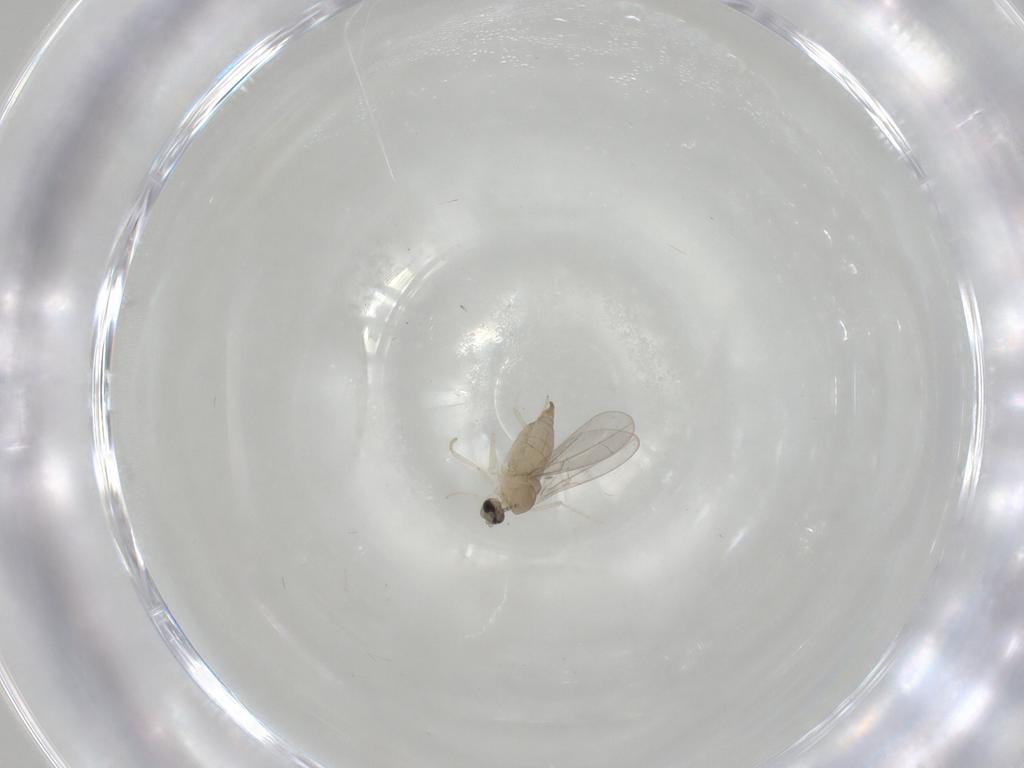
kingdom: Animalia
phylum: Arthropoda
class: Insecta
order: Diptera
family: Cecidomyiidae
